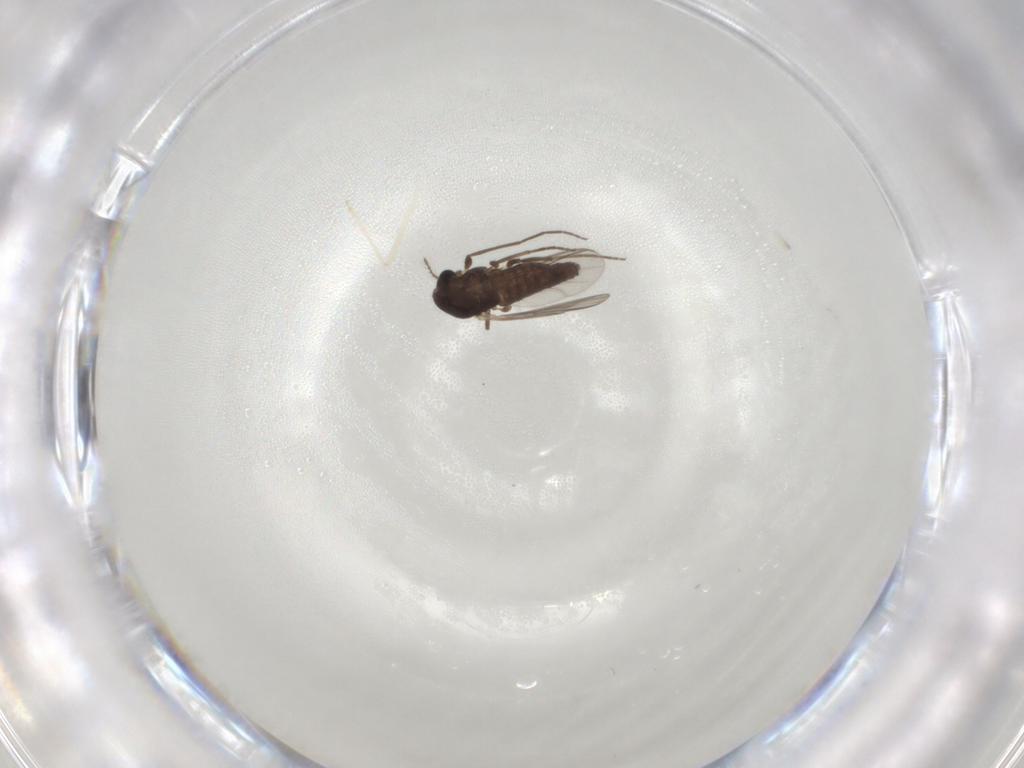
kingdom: Animalia
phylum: Arthropoda
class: Insecta
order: Diptera
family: Chironomidae
